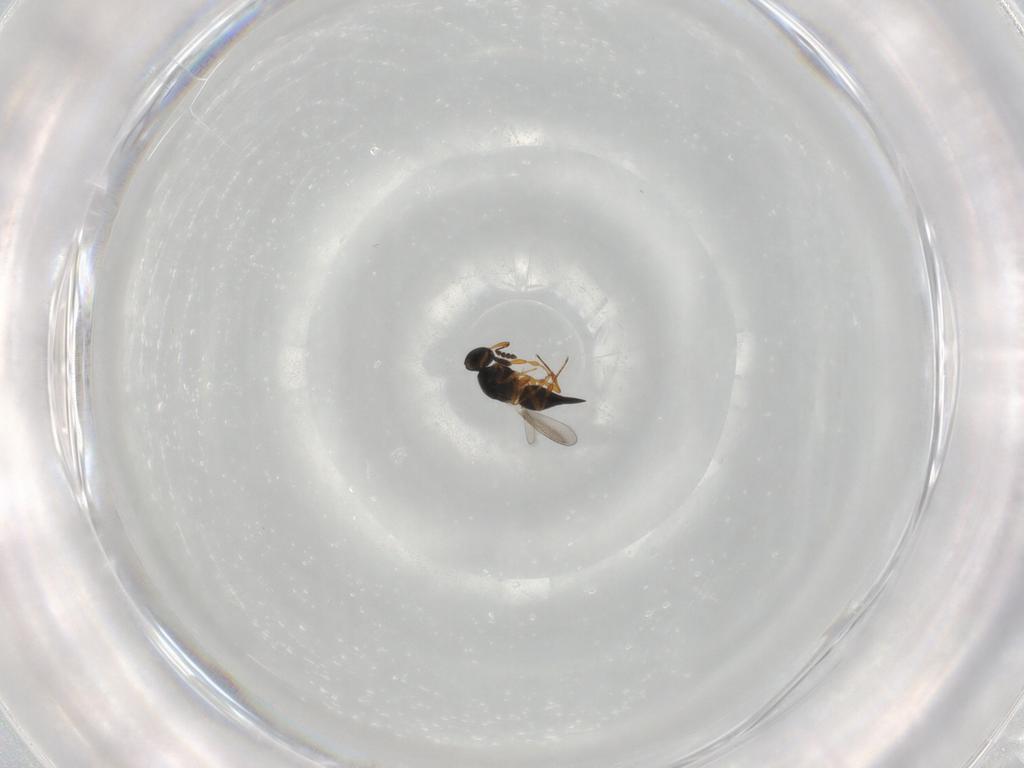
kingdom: Animalia
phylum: Arthropoda
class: Insecta
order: Hymenoptera
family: Platygastridae
